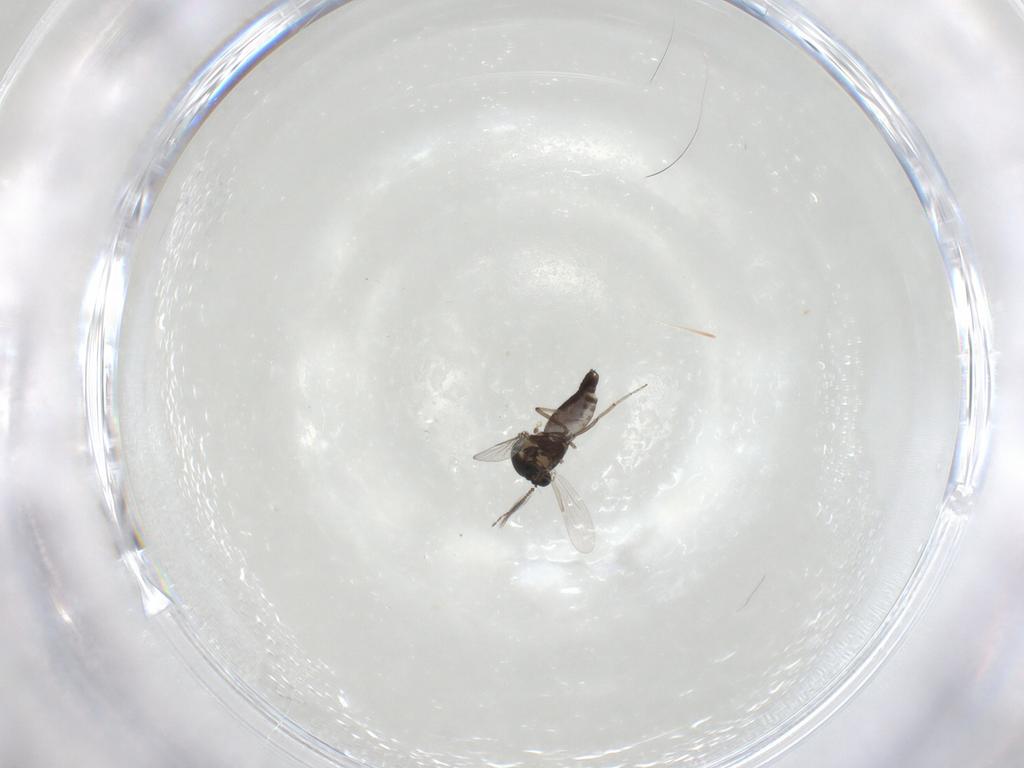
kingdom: Animalia
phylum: Arthropoda
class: Insecta
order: Diptera
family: Ceratopogonidae
